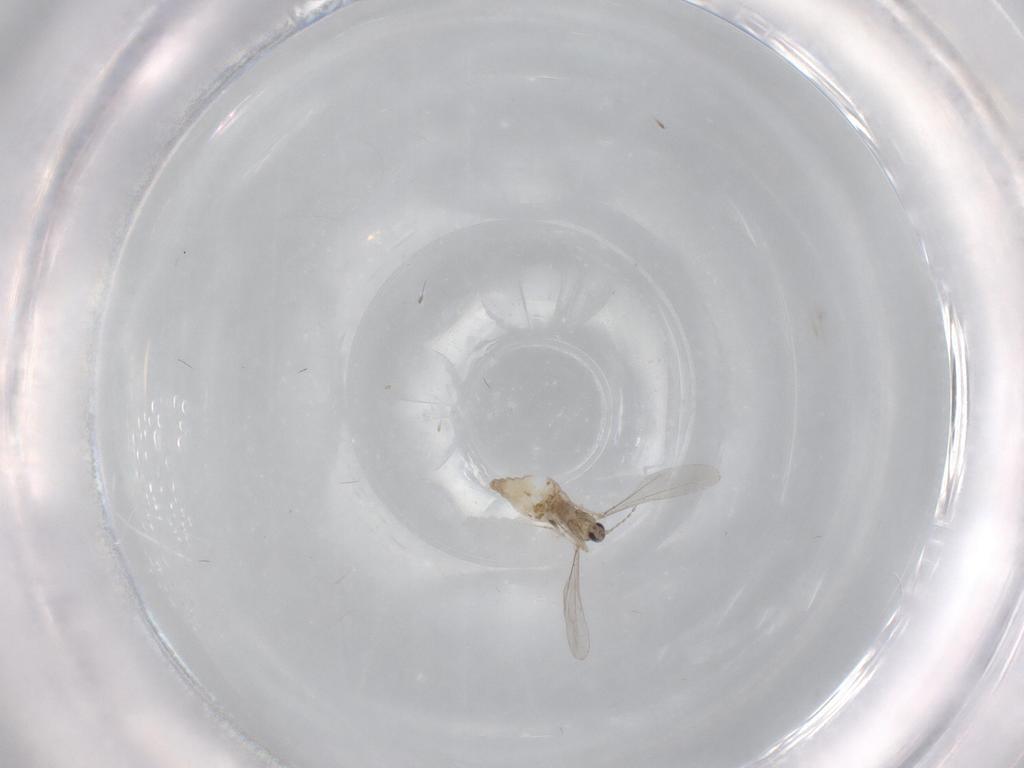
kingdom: Animalia
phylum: Arthropoda
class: Insecta
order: Diptera
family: Cecidomyiidae
